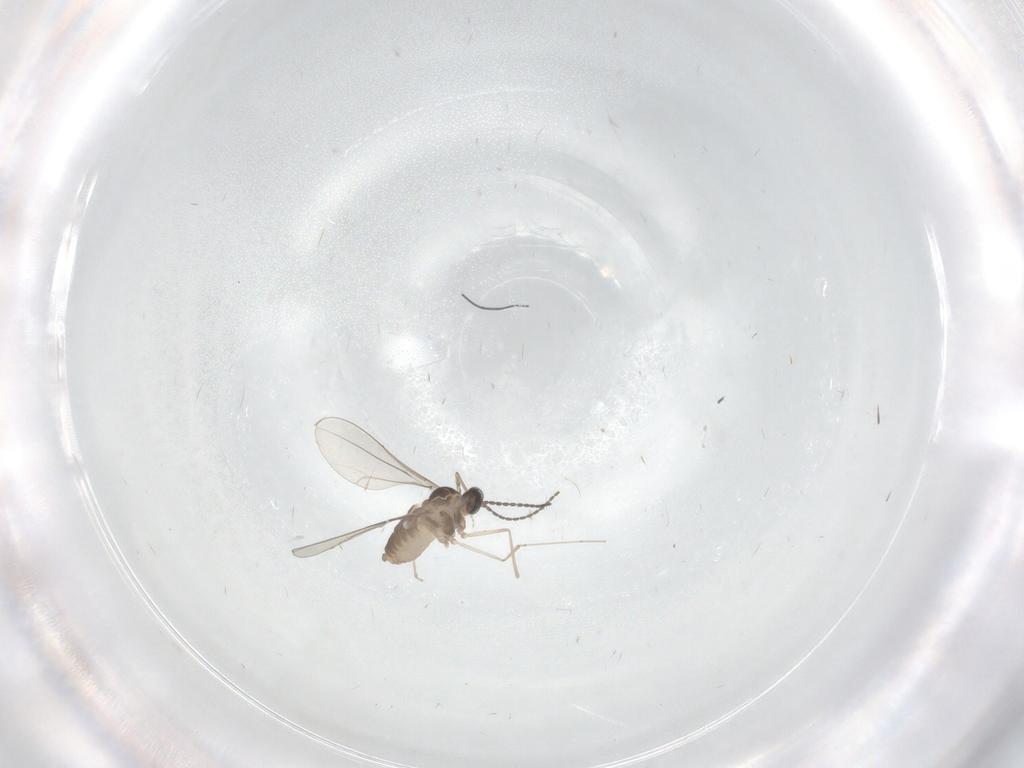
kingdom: Animalia
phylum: Arthropoda
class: Insecta
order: Diptera
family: Cecidomyiidae
